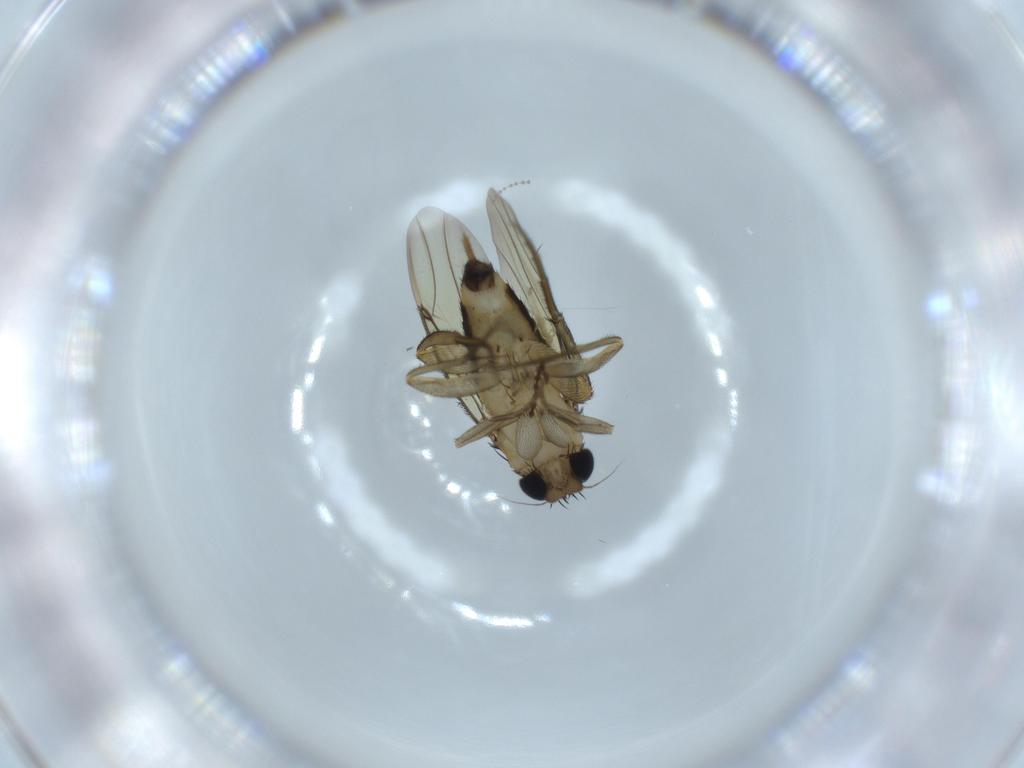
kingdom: Animalia
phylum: Arthropoda
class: Insecta
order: Diptera
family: Cecidomyiidae
